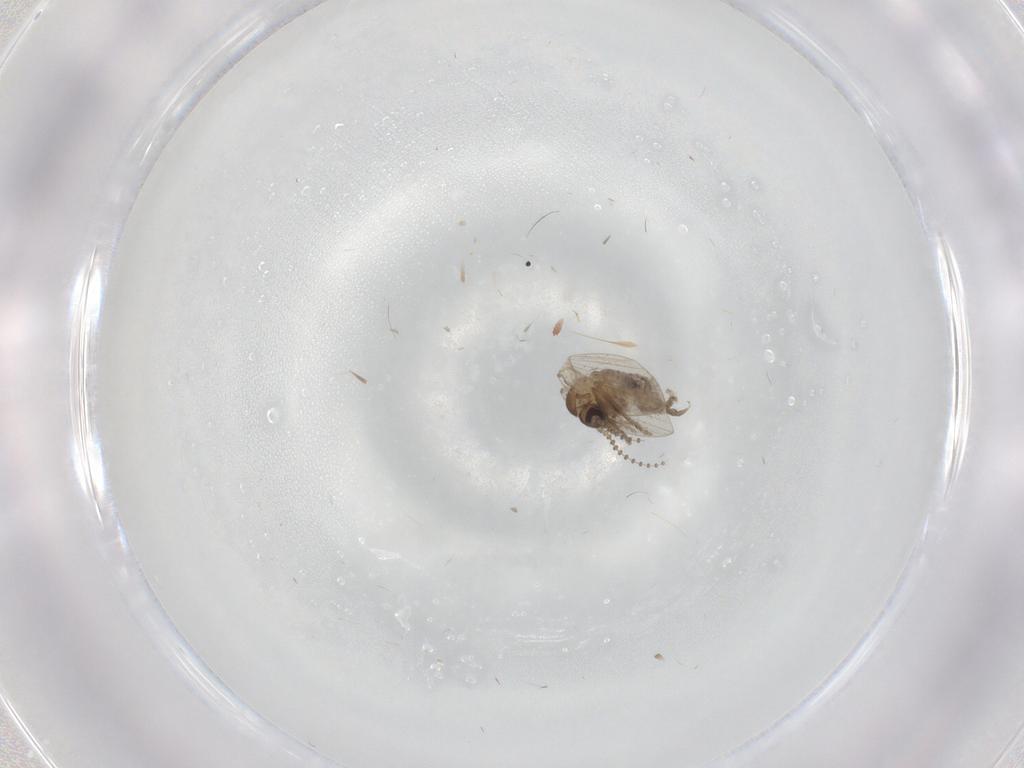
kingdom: Animalia
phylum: Arthropoda
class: Insecta
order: Diptera
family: Psychodidae
